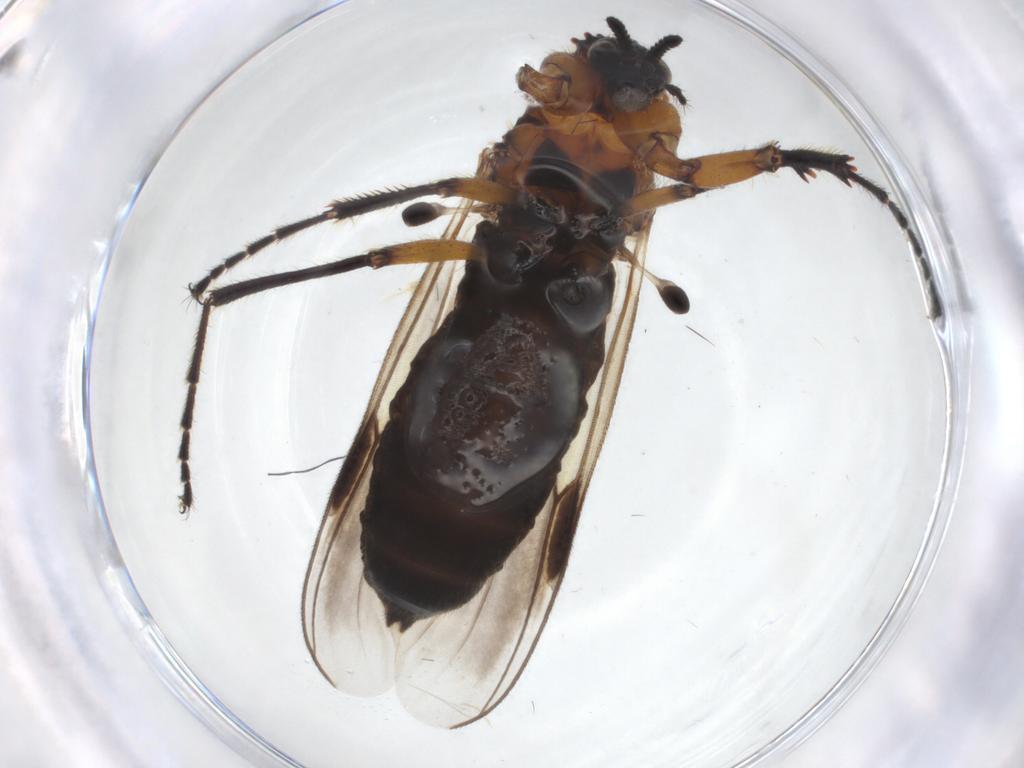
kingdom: Animalia
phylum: Arthropoda
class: Insecta
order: Diptera
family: Bibionidae
